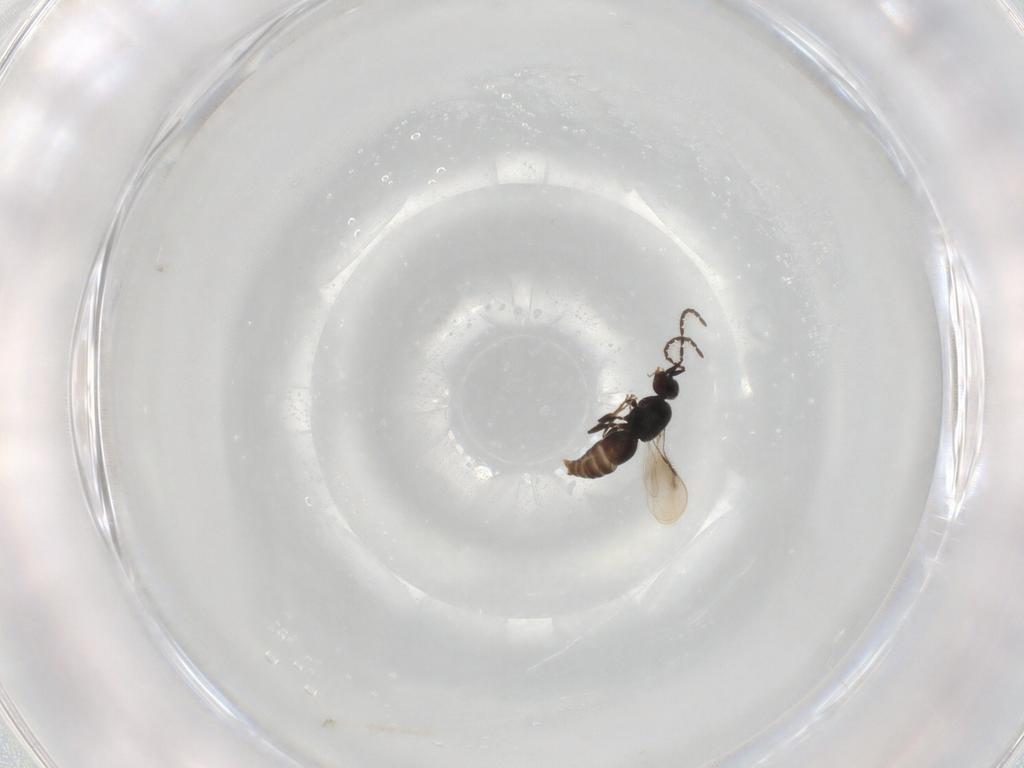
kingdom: Animalia
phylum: Arthropoda
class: Insecta
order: Hymenoptera
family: Ceraphronidae
